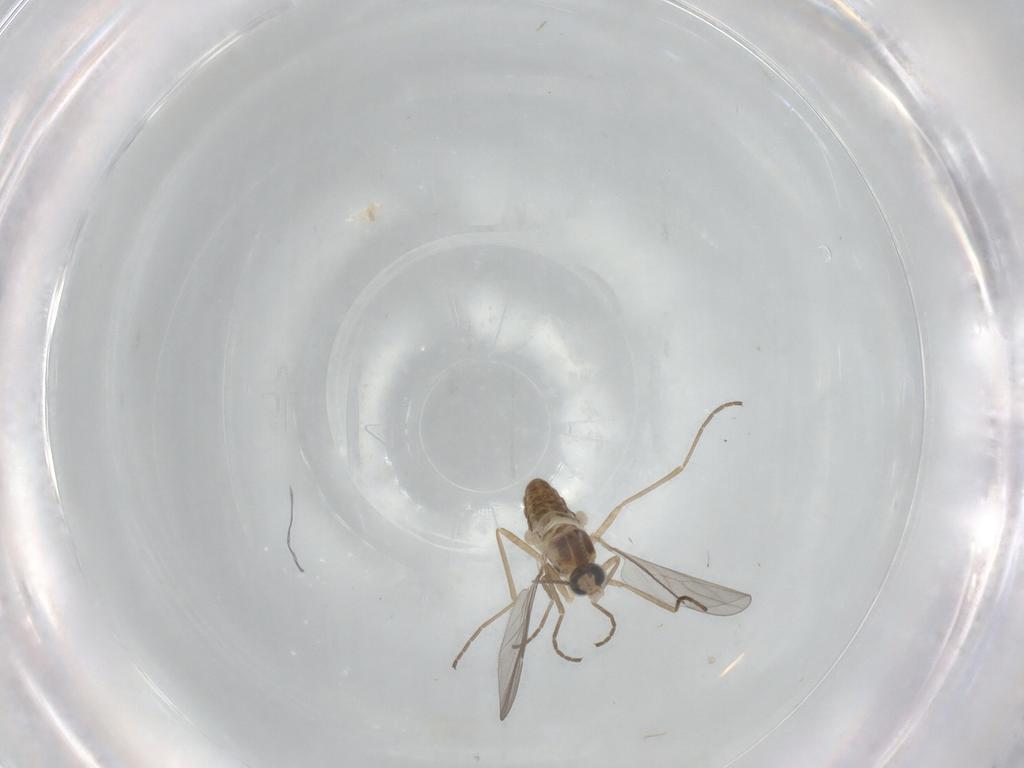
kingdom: Animalia
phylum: Arthropoda
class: Insecta
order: Diptera
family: Cecidomyiidae
